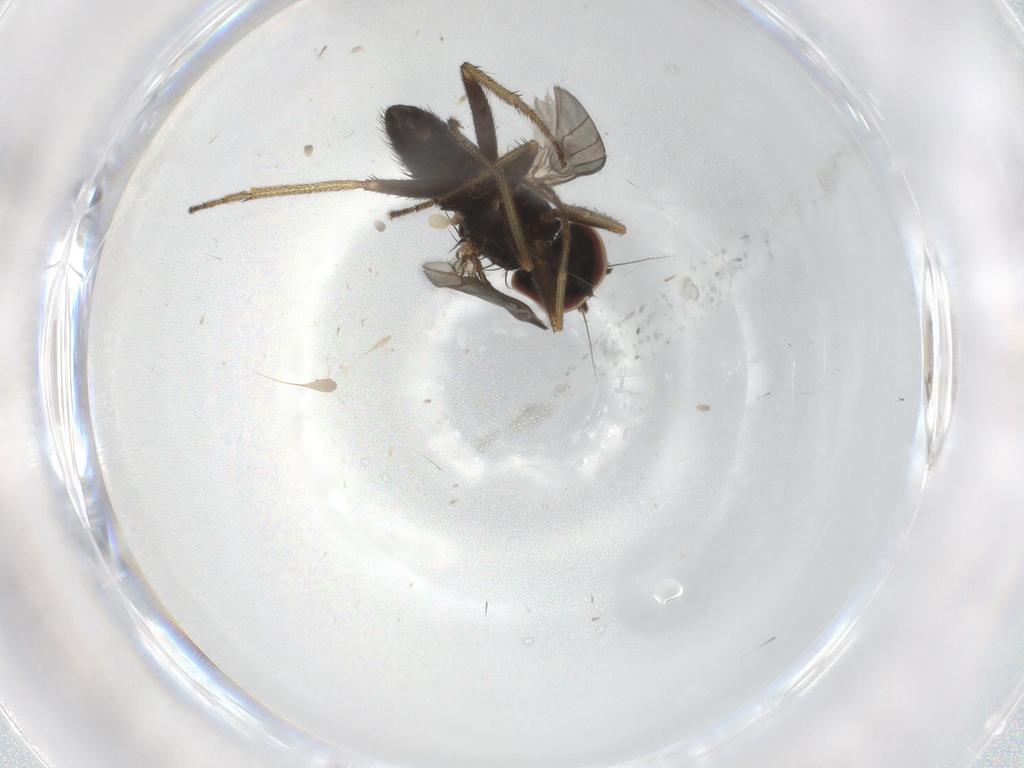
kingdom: Animalia
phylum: Arthropoda
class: Insecta
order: Diptera
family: Dolichopodidae
